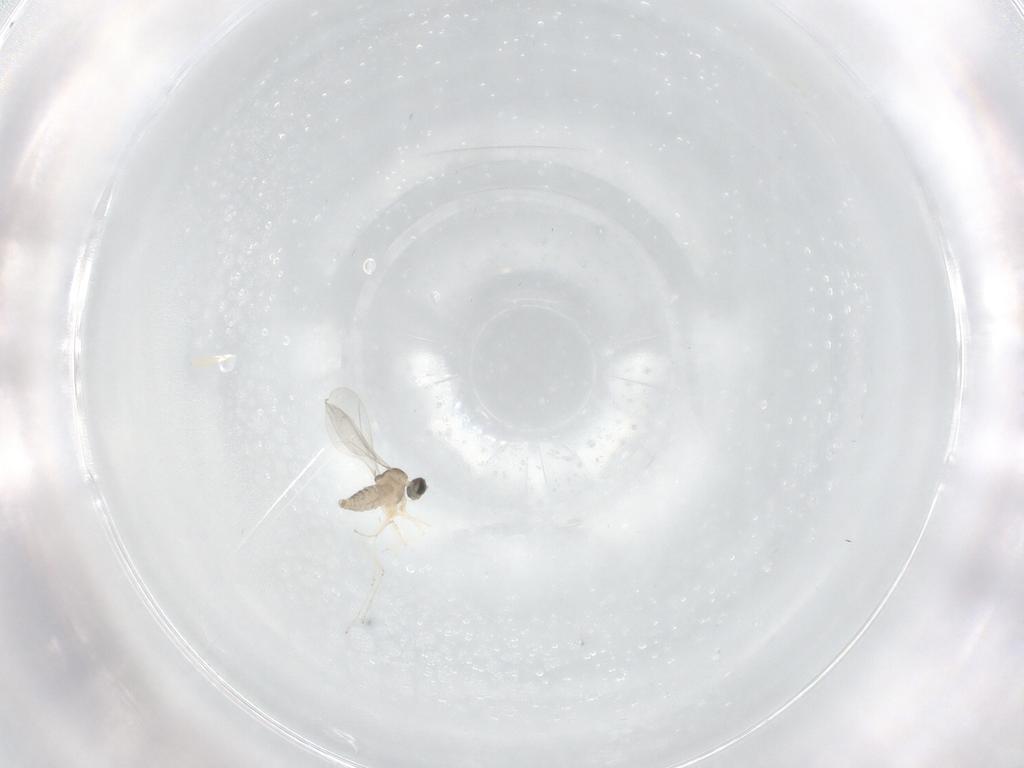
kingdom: Animalia
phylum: Arthropoda
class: Insecta
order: Diptera
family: Cecidomyiidae
